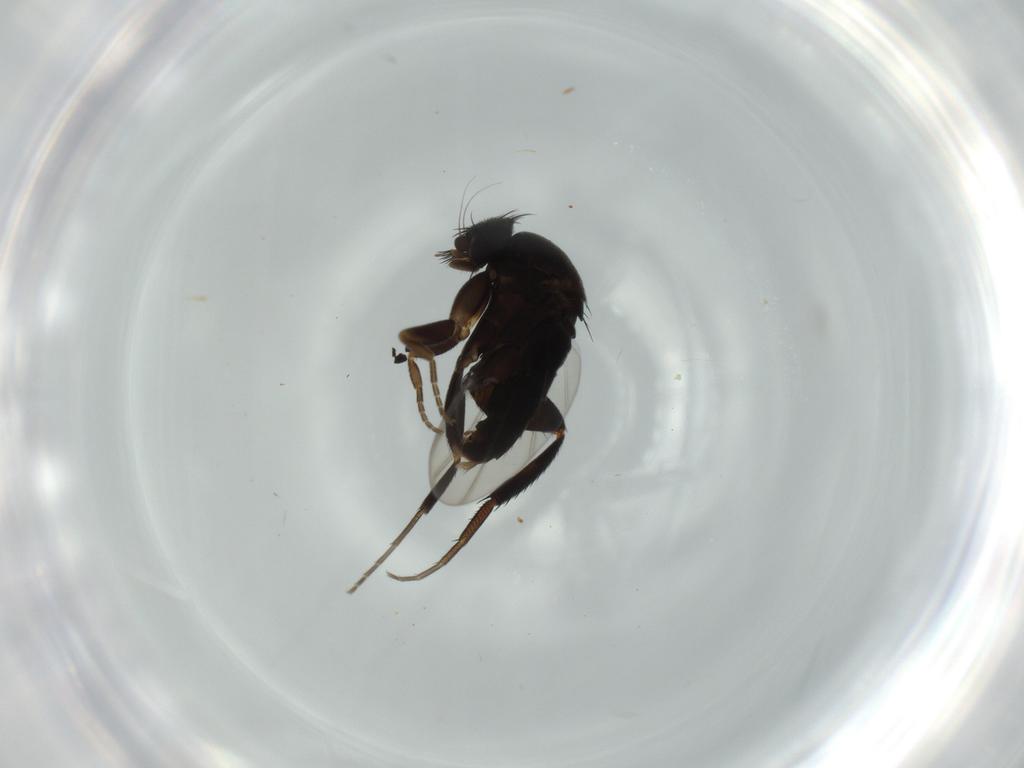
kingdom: Animalia
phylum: Arthropoda
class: Insecta
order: Diptera
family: Phoridae
